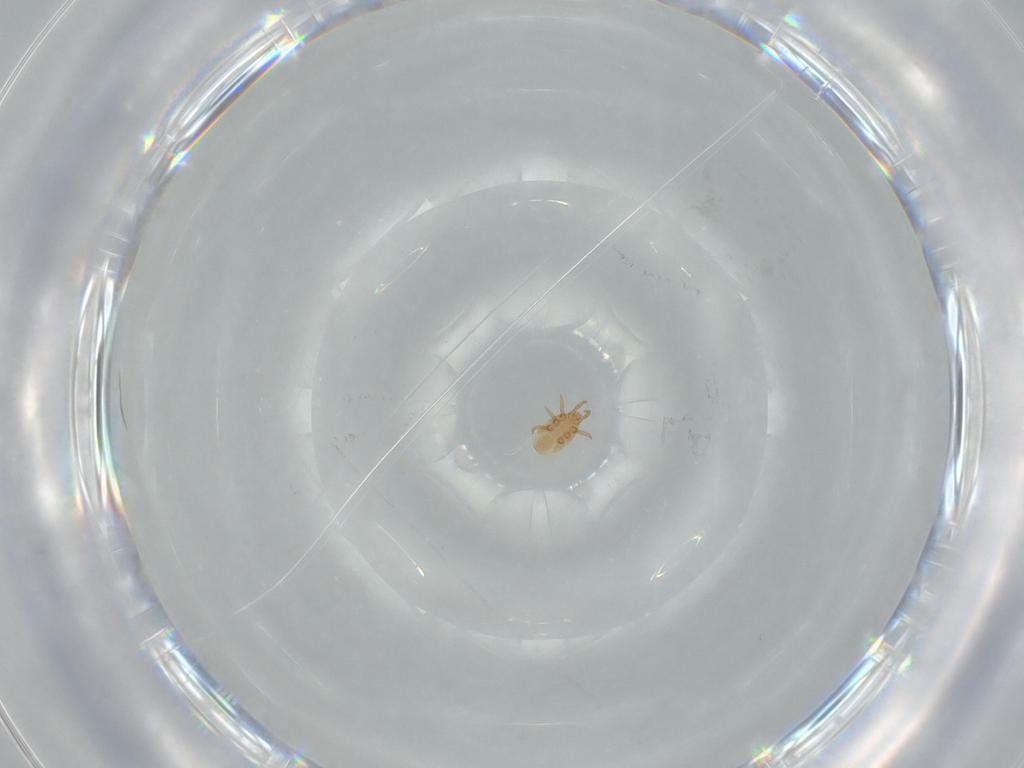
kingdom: Animalia
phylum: Arthropoda
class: Arachnida
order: Mesostigmata
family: Dinychidae
